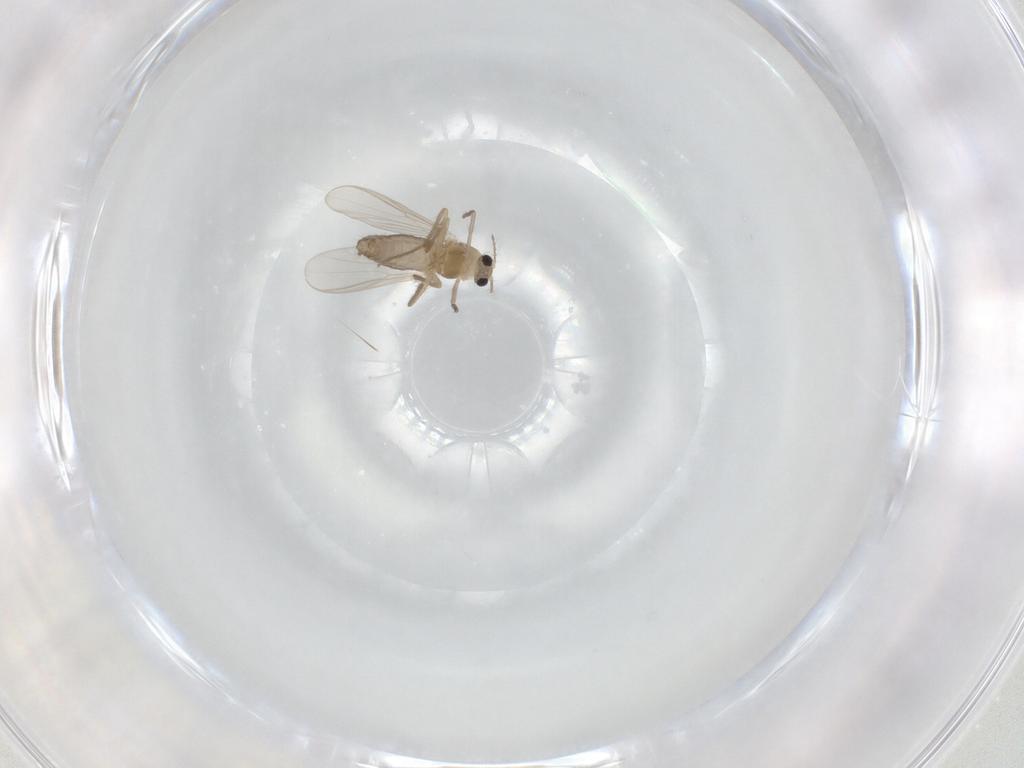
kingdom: Animalia
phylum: Arthropoda
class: Insecta
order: Diptera
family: Chironomidae
